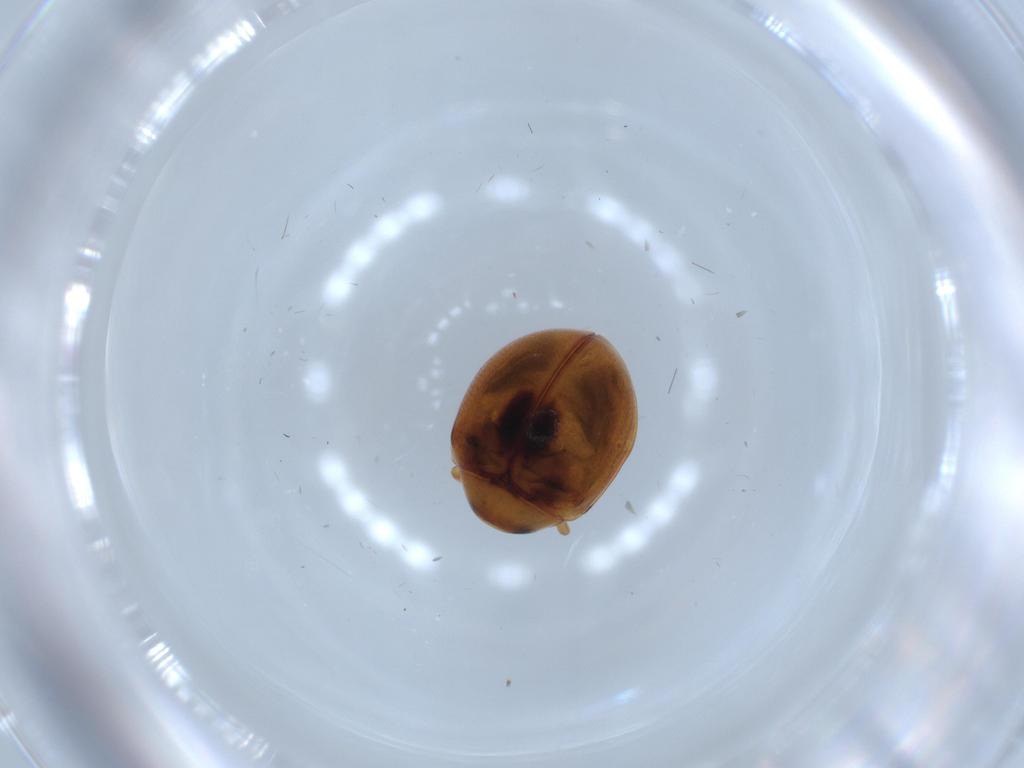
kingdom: Animalia
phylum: Arthropoda
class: Insecta
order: Coleoptera
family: Coccinellidae
